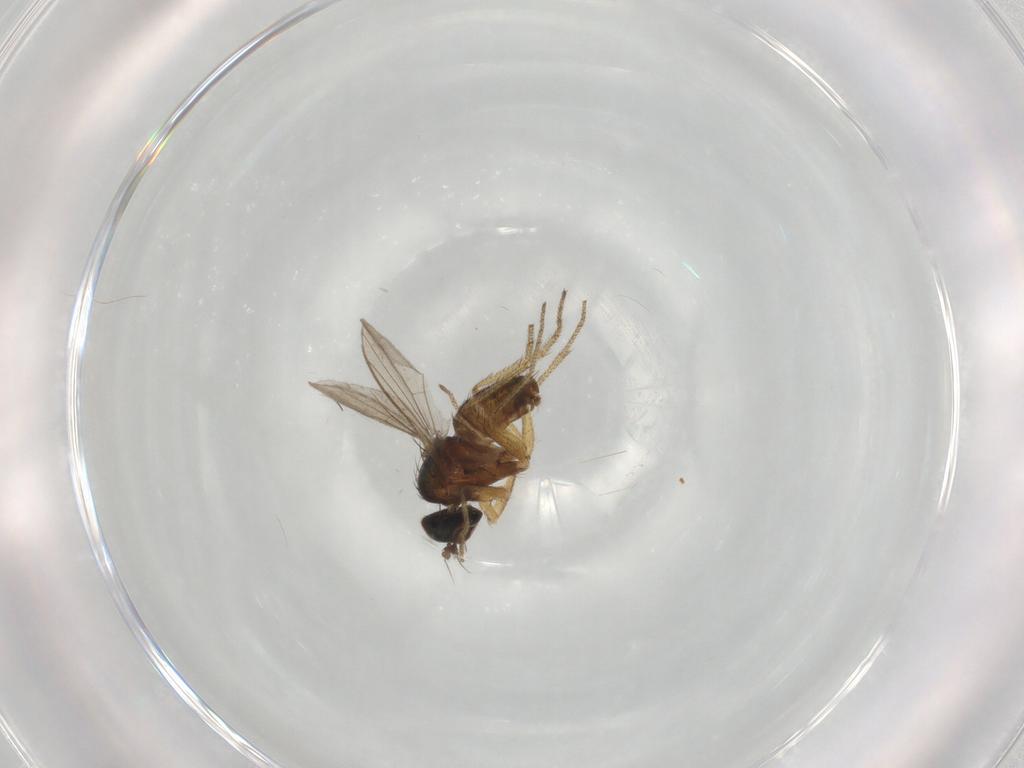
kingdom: Animalia
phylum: Arthropoda
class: Insecta
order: Diptera
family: Dolichopodidae
